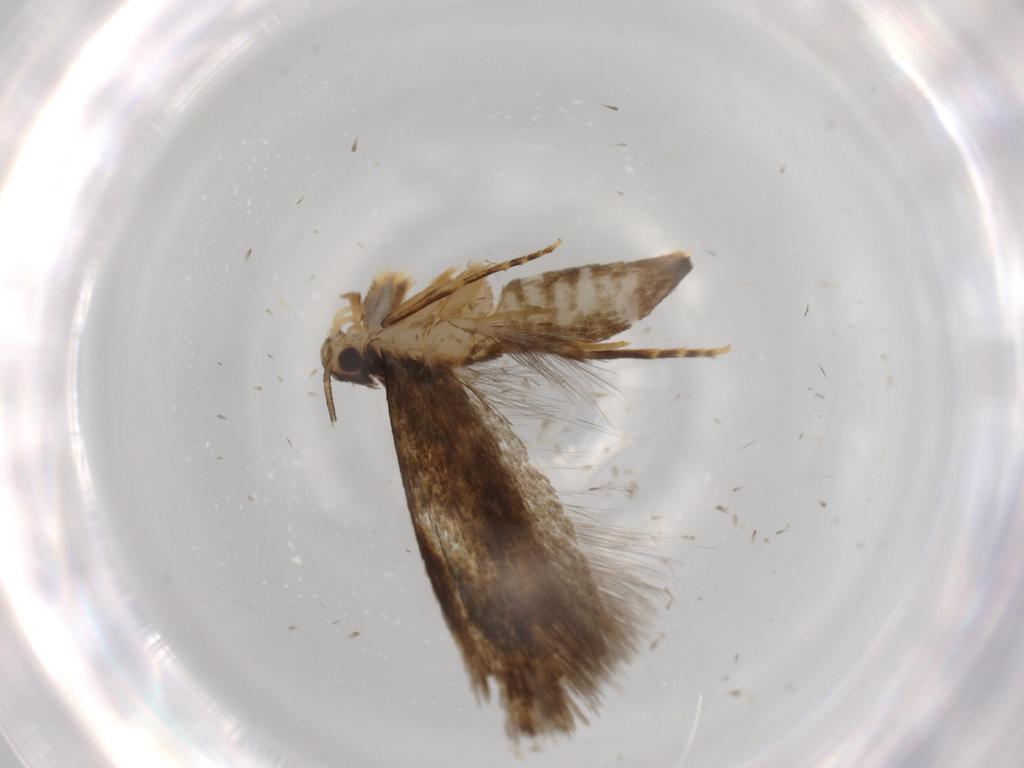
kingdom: Animalia
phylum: Arthropoda
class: Insecta
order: Lepidoptera
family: Tineidae
